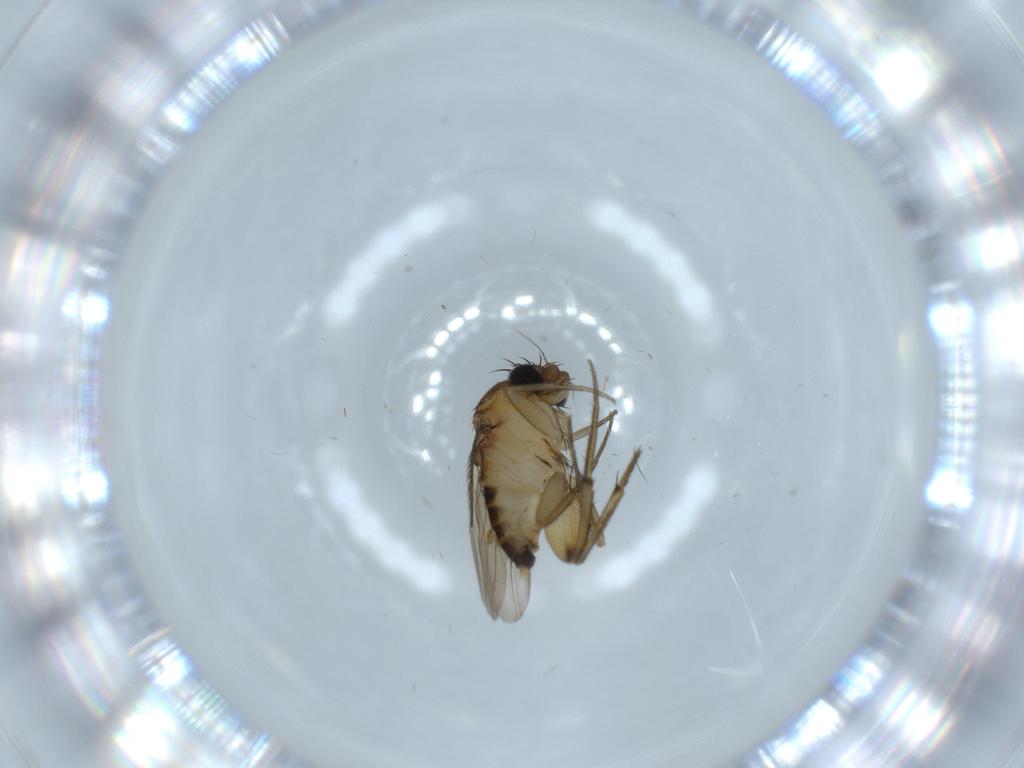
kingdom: Animalia
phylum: Arthropoda
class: Insecta
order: Diptera
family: Phoridae
